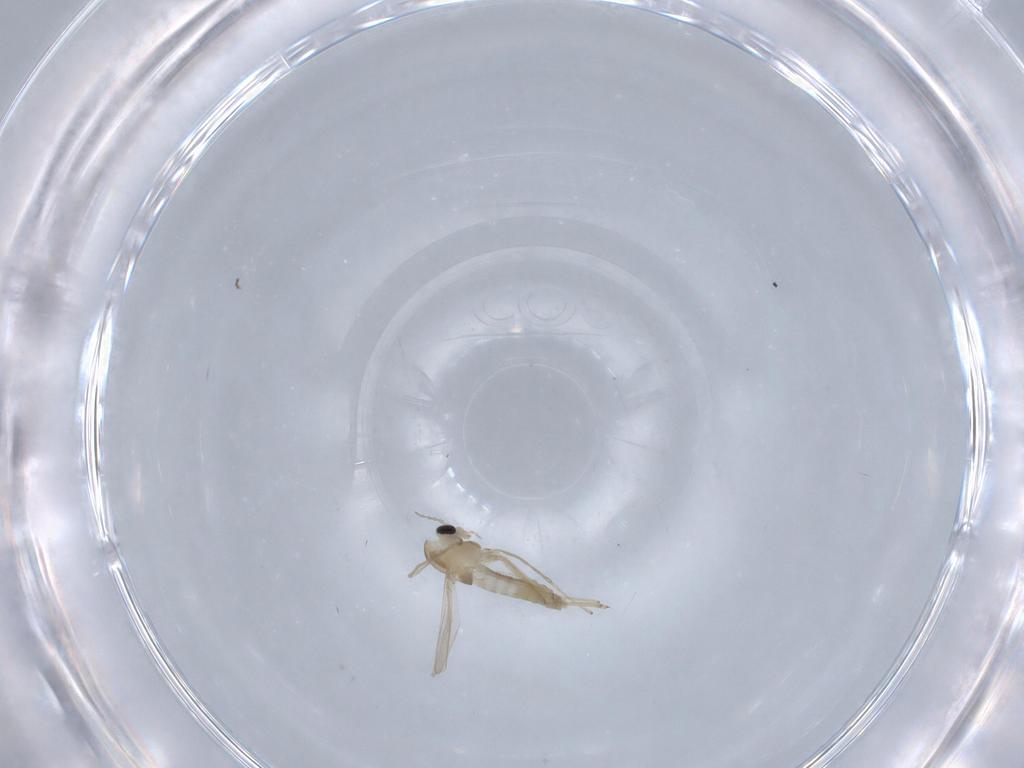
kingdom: Animalia
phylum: Arthropoda
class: Insecta
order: Diptera
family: Chironomidae
